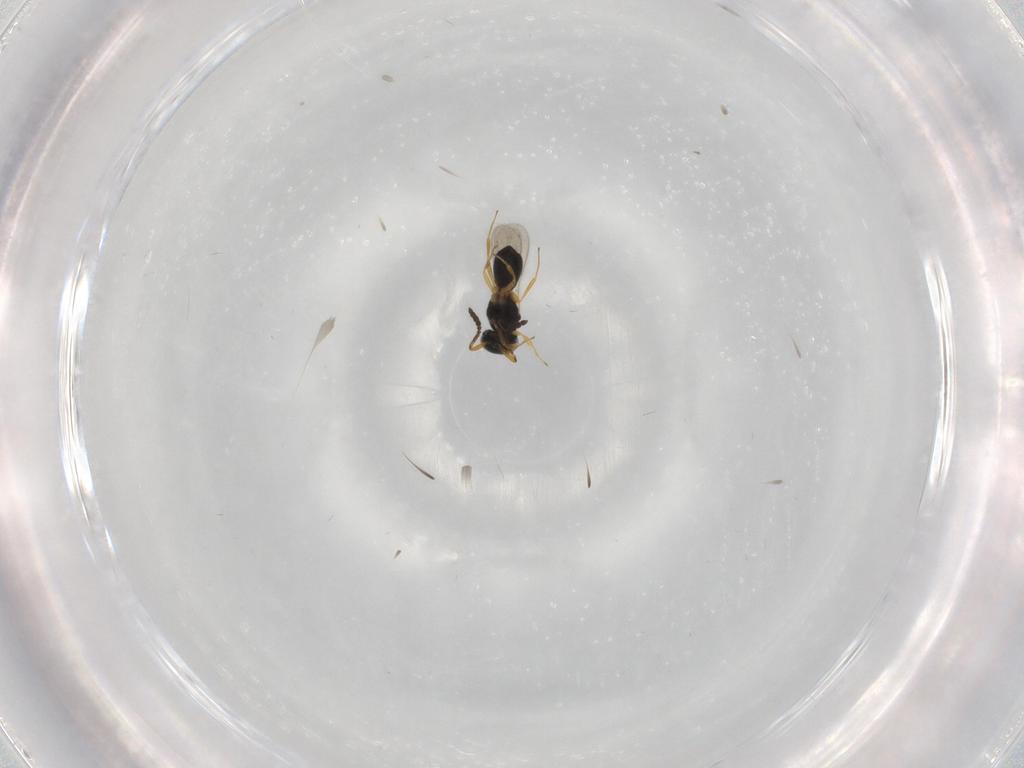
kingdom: Animalia
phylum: Arthropoda
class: Insecta
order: Hymenoptera
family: Scelionidae
